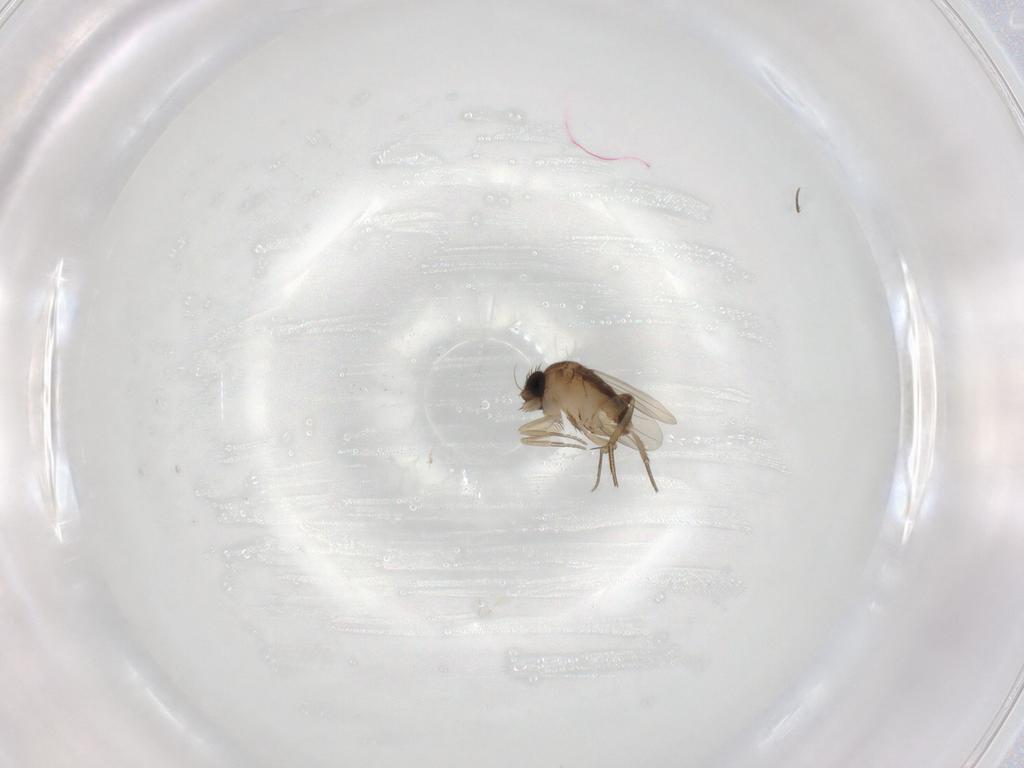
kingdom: Animalia
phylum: Arthropoda
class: Insecta
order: Diptera
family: Phoridae
